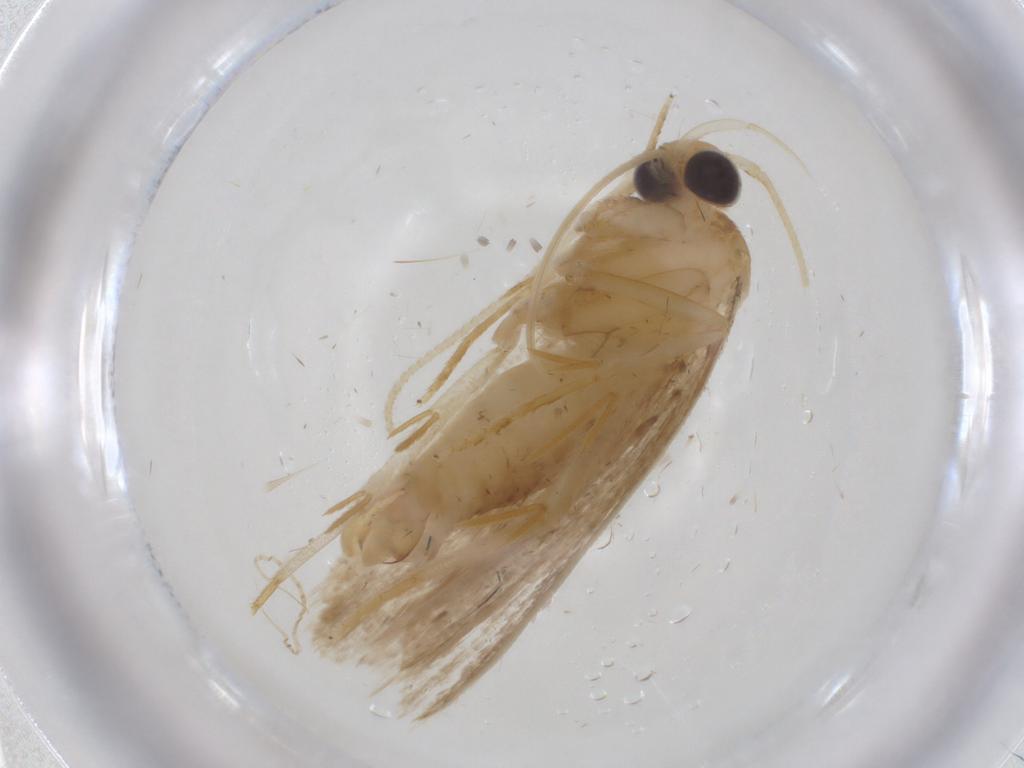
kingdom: Animalia
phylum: Arthropoda
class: Insecta
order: Lepidoptera
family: Autostichidae
